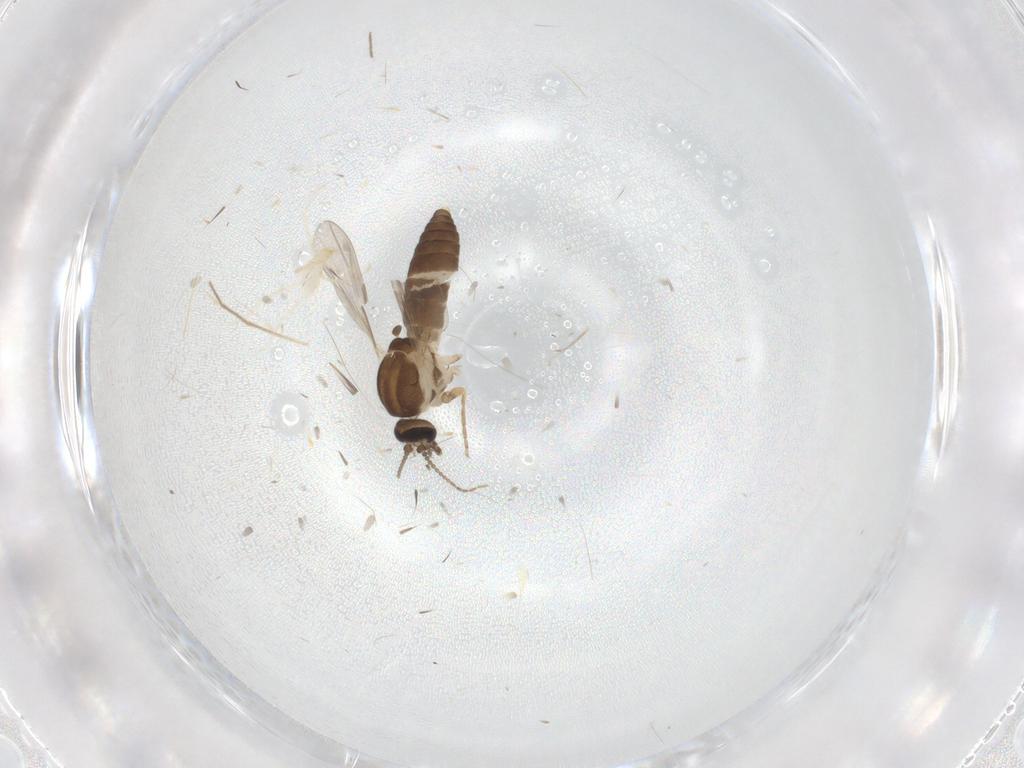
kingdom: Animalia
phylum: Arthropoda
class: Insecta
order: Diptera
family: Ceratopogonidae
